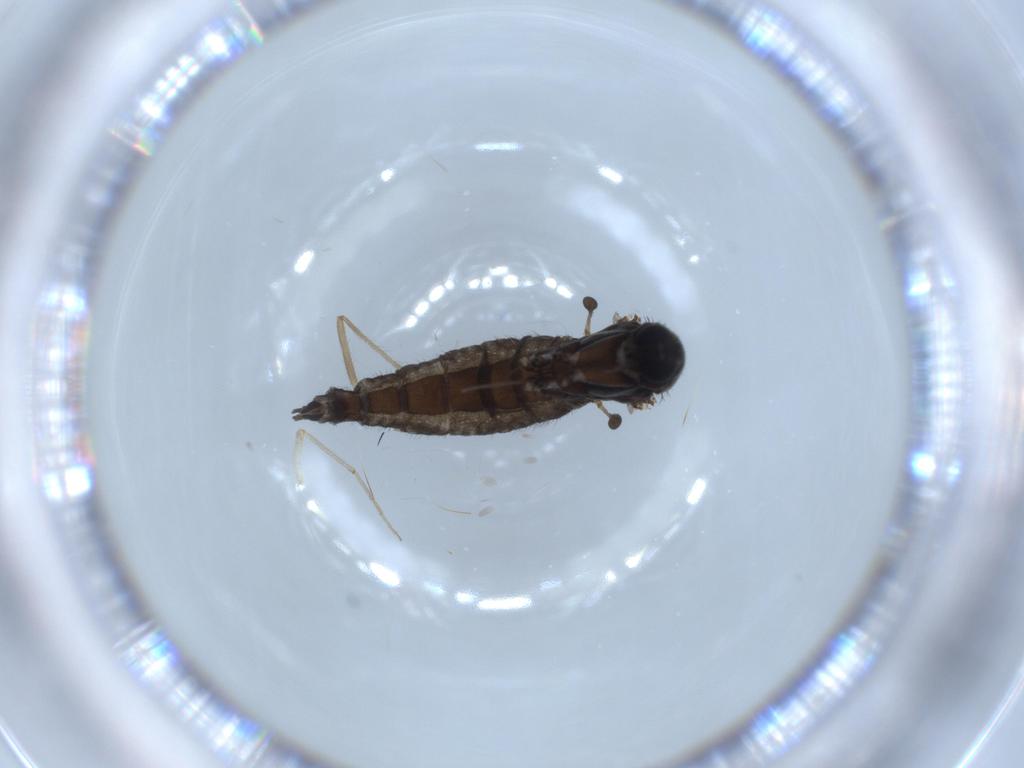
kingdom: Animalia
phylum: Arthropoda
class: Insecta
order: Diptera
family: Sciaridae
